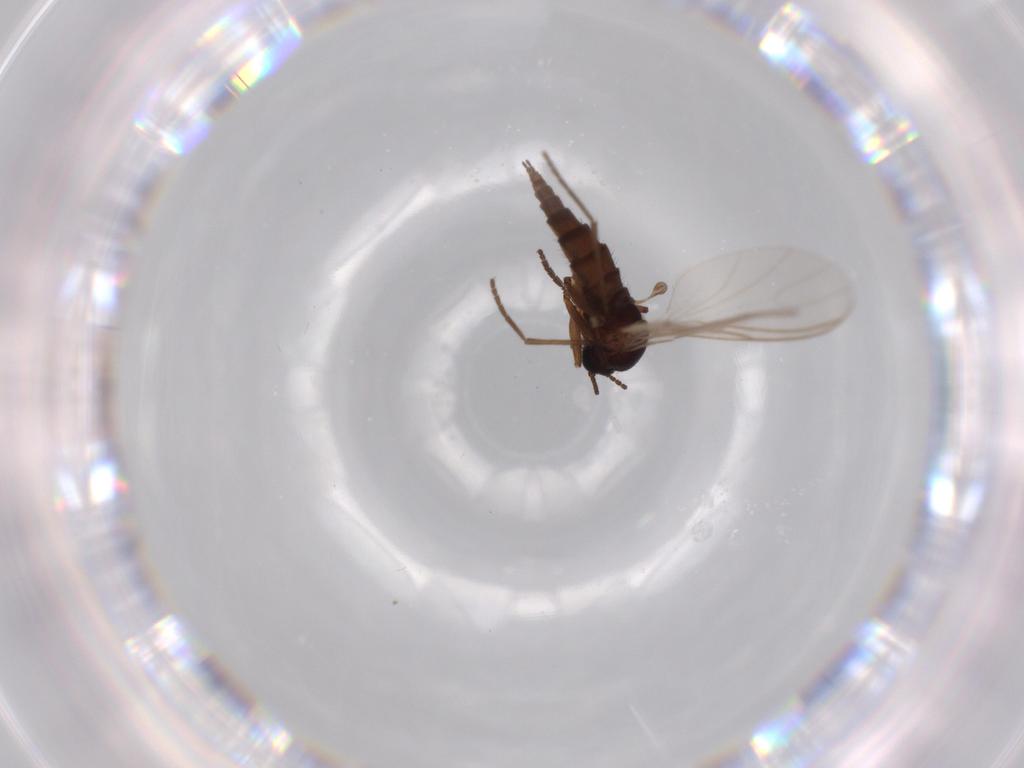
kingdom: Animalia
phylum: Arthropoda
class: Insecta
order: Diptera
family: Sciaridae
